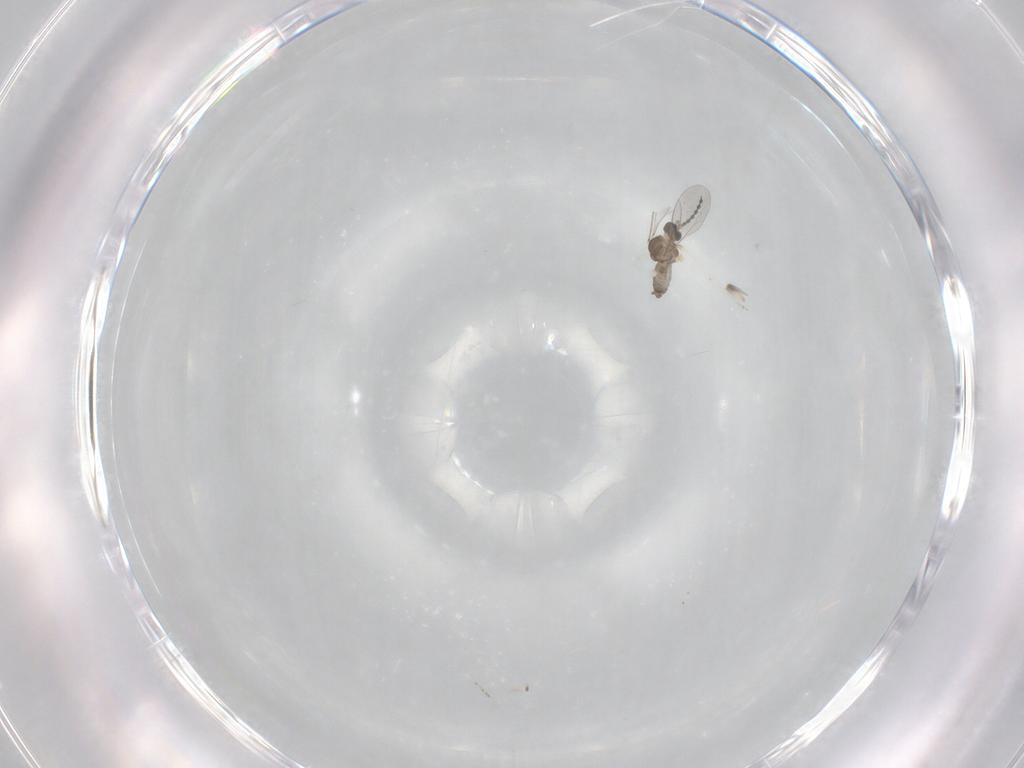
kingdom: Animalia
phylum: Arthropoda
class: Insecta
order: Diptera
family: Cecidomyiidae
